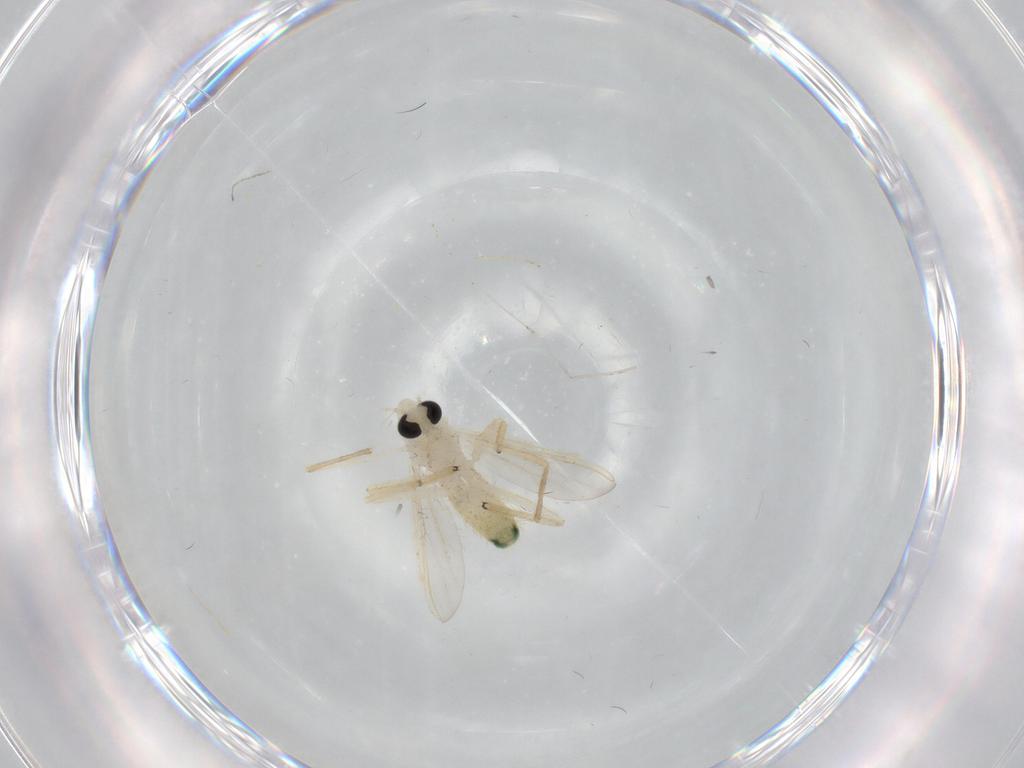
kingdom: Animalia
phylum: Arthropoda
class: Insecta
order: Diptera
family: Chironomidae
